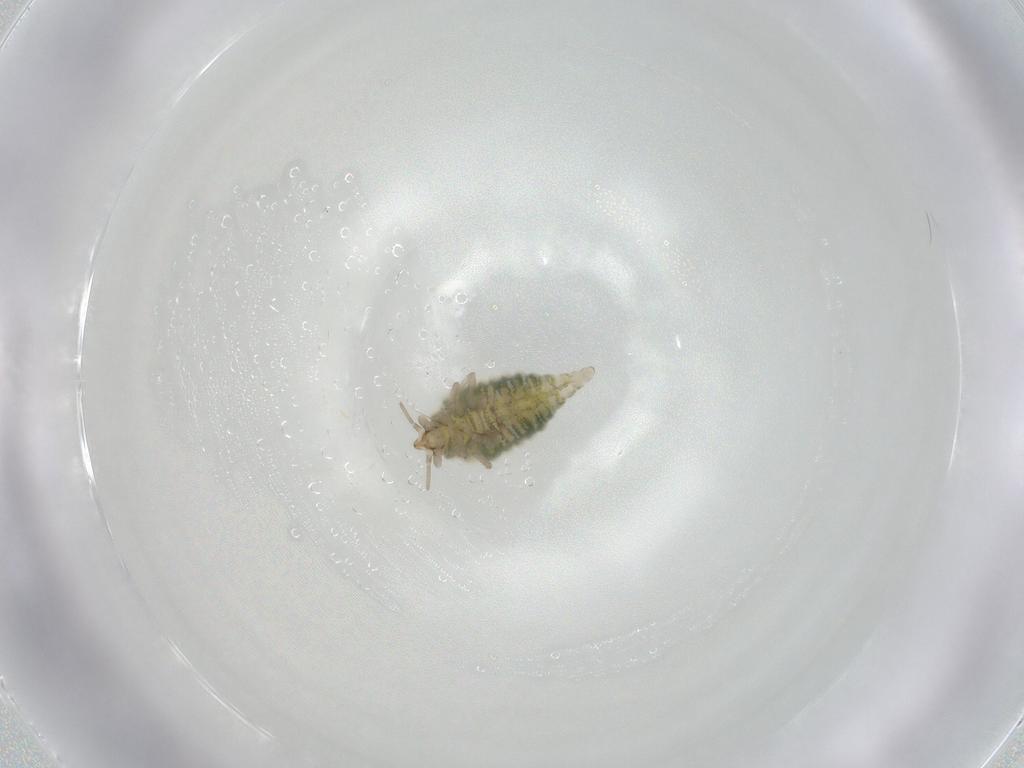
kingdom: Animalia
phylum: Arthropoda
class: Insecta
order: Neuroptera
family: Coniopterygidae
